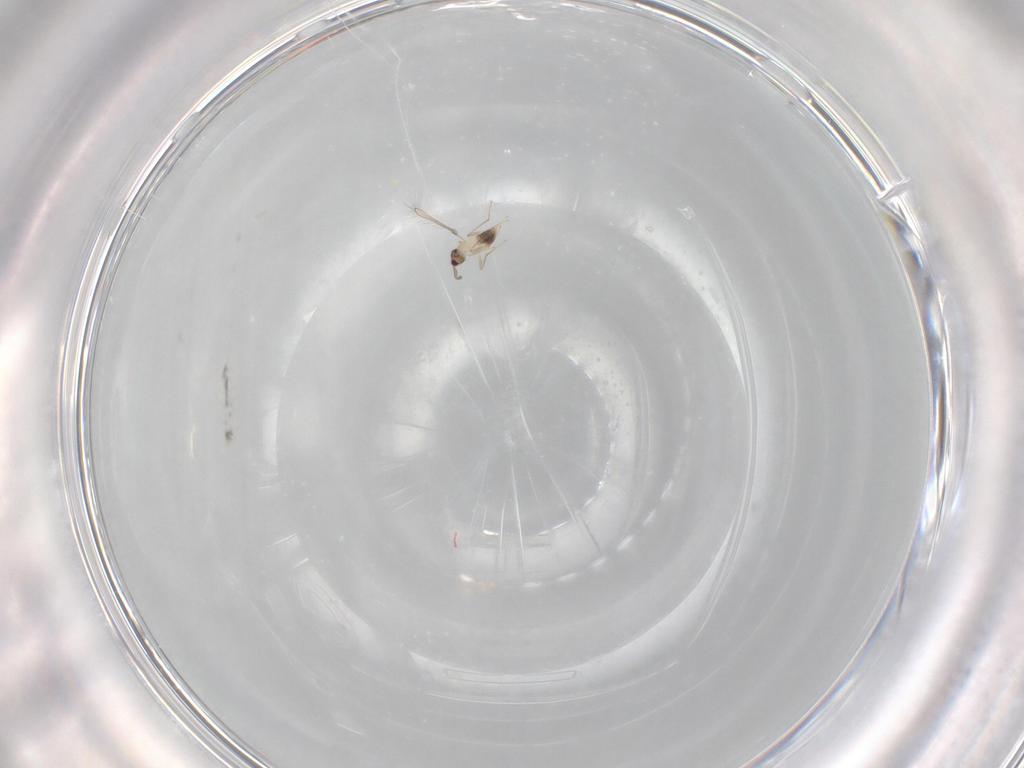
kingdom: Animalia
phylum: Arthropoda
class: Insecta
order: Hymenoptera
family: Mymaridae
